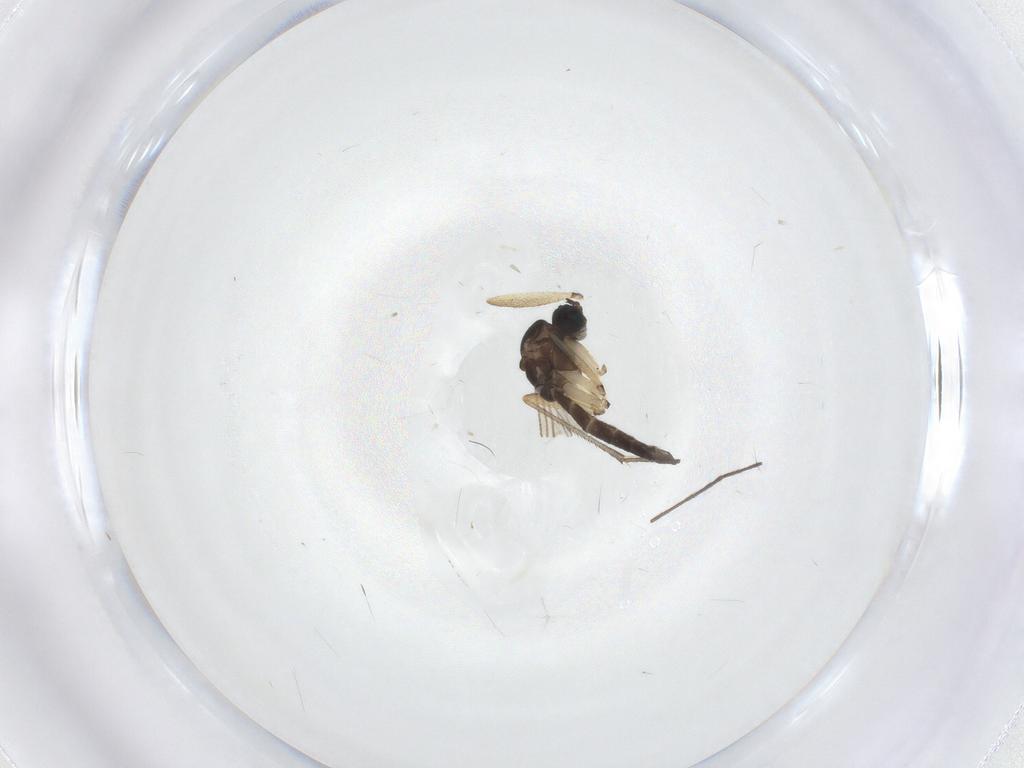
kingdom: Animalia
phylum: Arthropoda
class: Insecta
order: Diptera
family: Sciaridae
